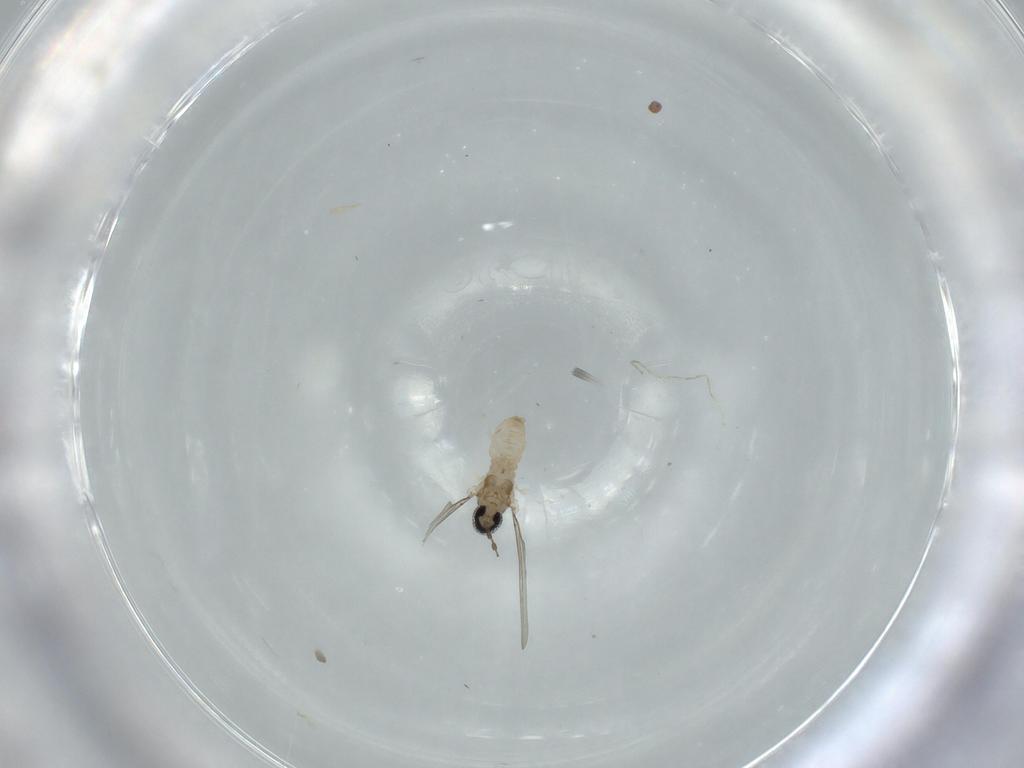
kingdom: Animalia
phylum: Arthropoda
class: Insecta
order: Diptera
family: Cecidomyiidae
